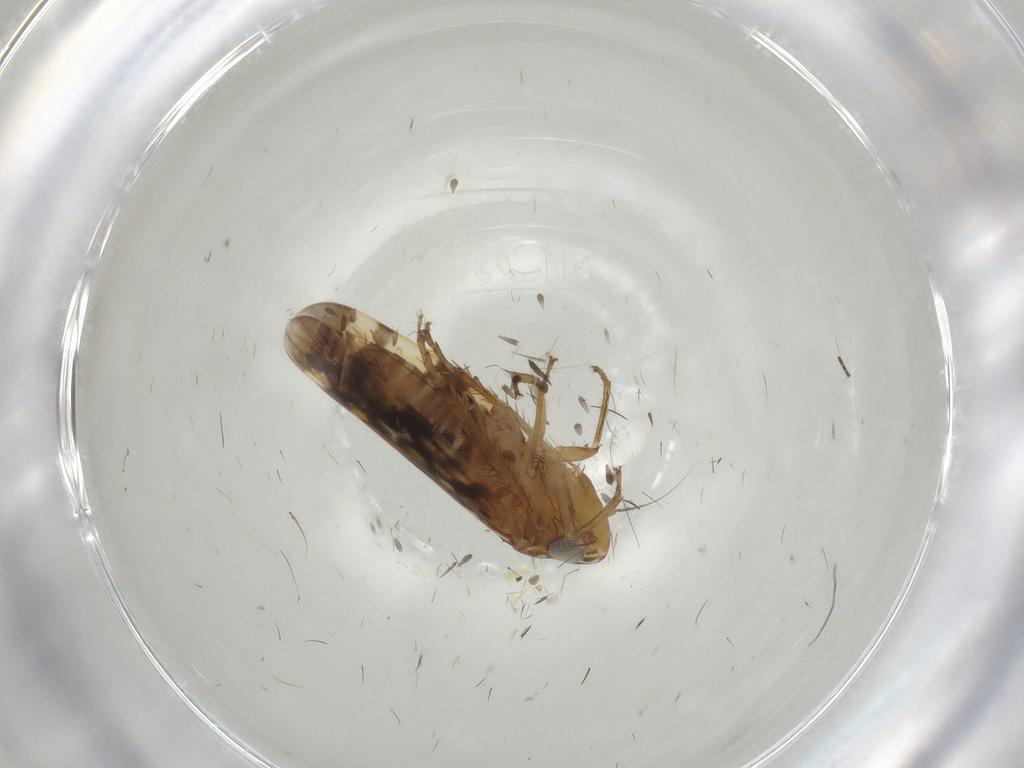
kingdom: Animalia
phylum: Arthropoda
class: Insecta
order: Hemiptera
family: Cicadellidae
